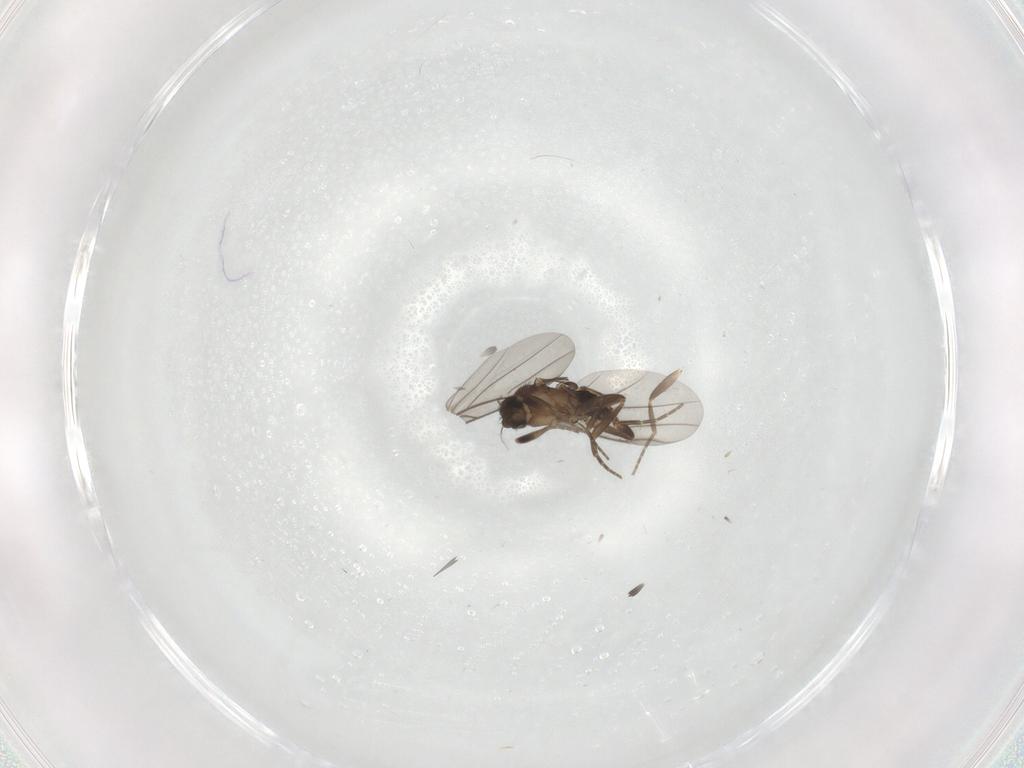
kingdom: Animalia
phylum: Arthropoda
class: Insecta
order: Diptera
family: Phoridae
